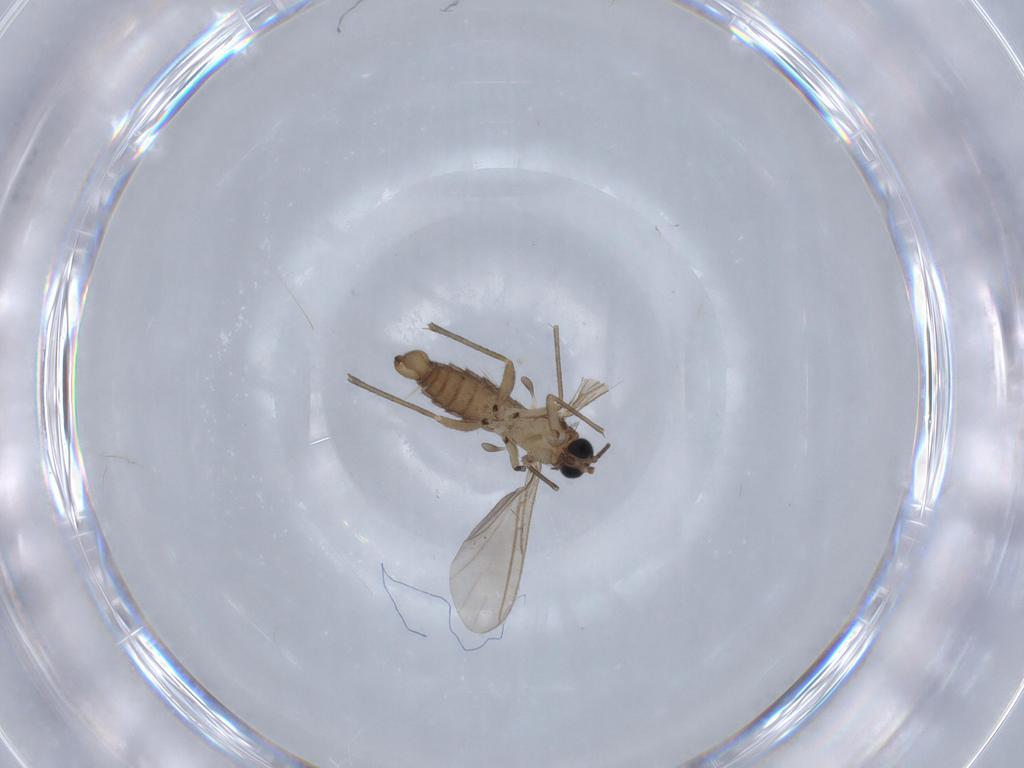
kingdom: Animalia
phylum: Arthropoda
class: Insecta
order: Diptera
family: Sciaridae
